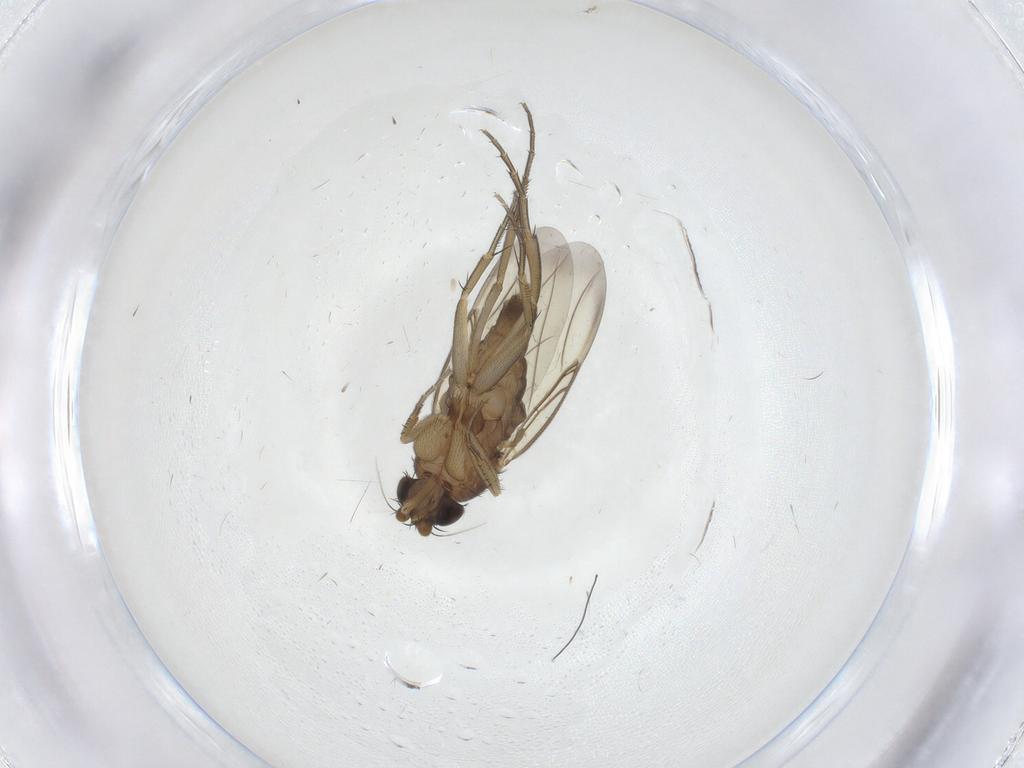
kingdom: Animalia
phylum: Arthropoda
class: Insecta
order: Diptera
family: Phoridae
